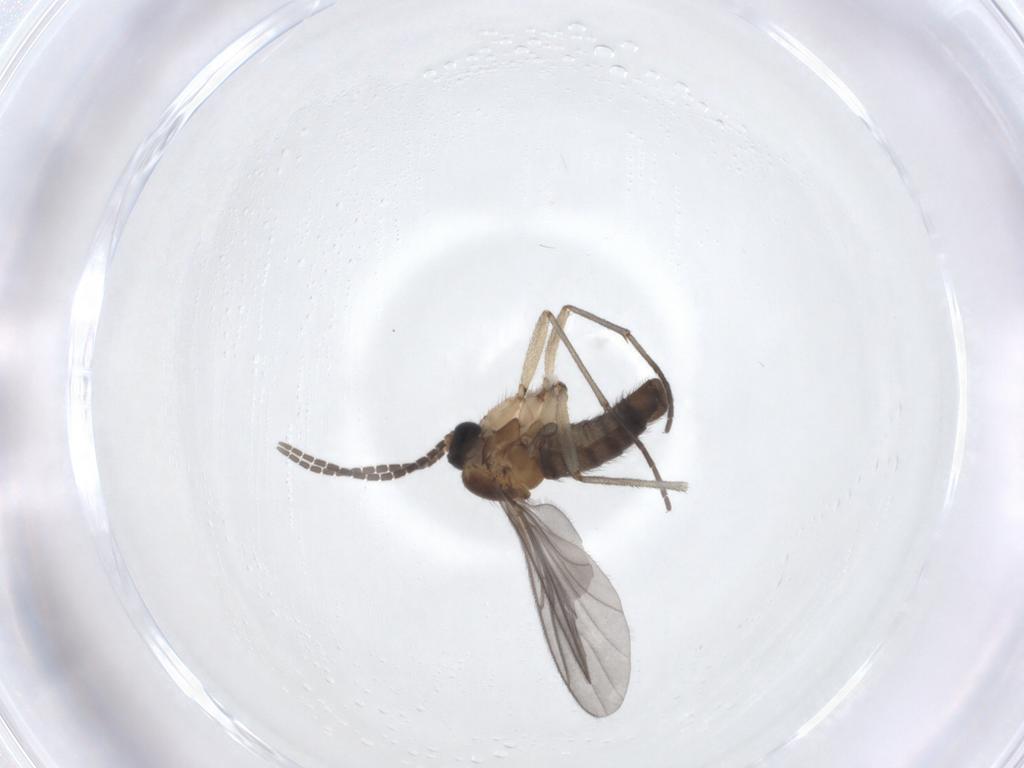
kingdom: Animalia
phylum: Arthropoda
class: Insecta
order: Diptera
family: Sciaridae
